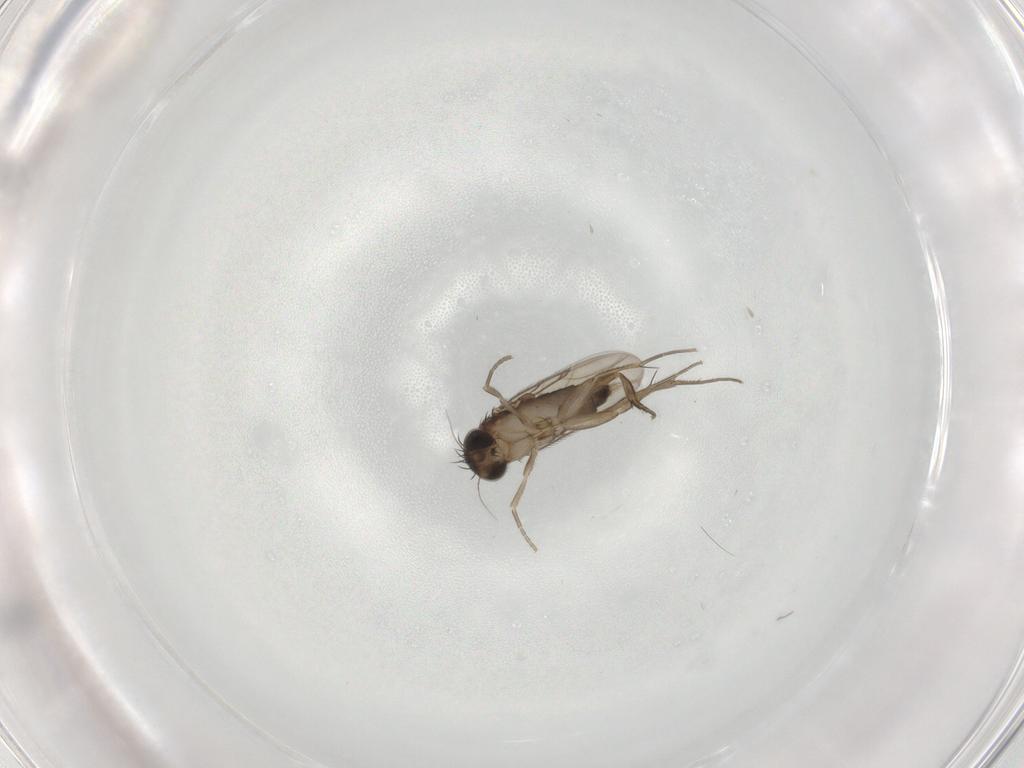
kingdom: Animalia
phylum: Arthropoda
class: Insecta
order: Diptera
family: Phoridae
